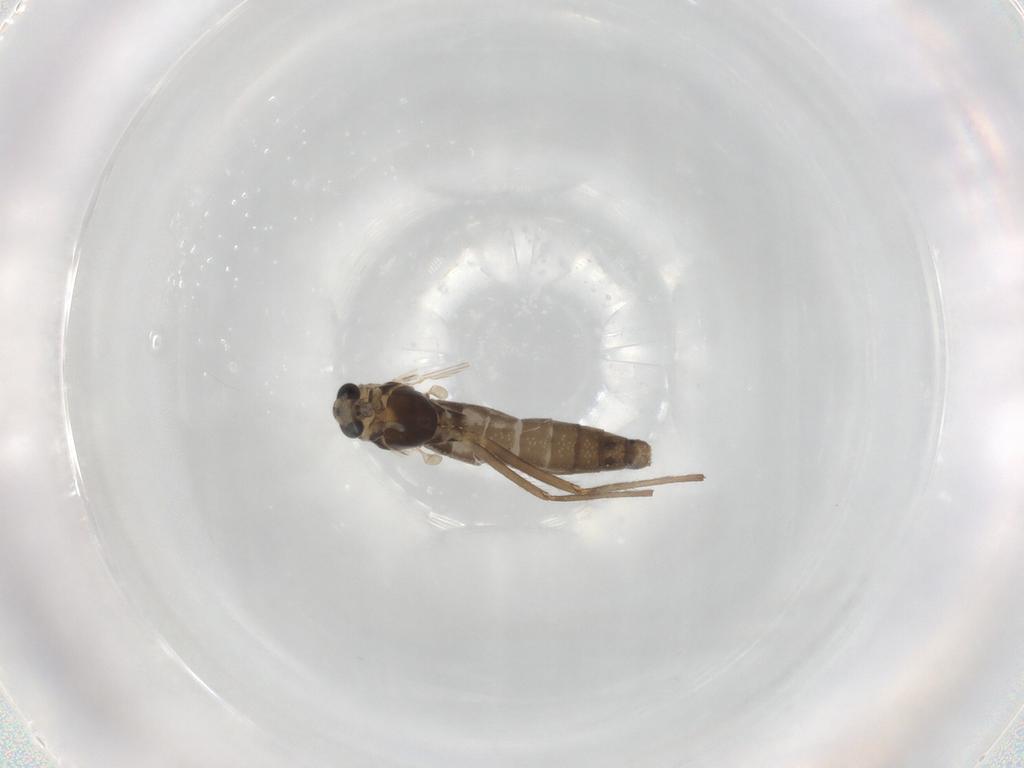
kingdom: Animalia
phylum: Arthropoda
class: Insecta
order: Diptera
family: Chironomidae
